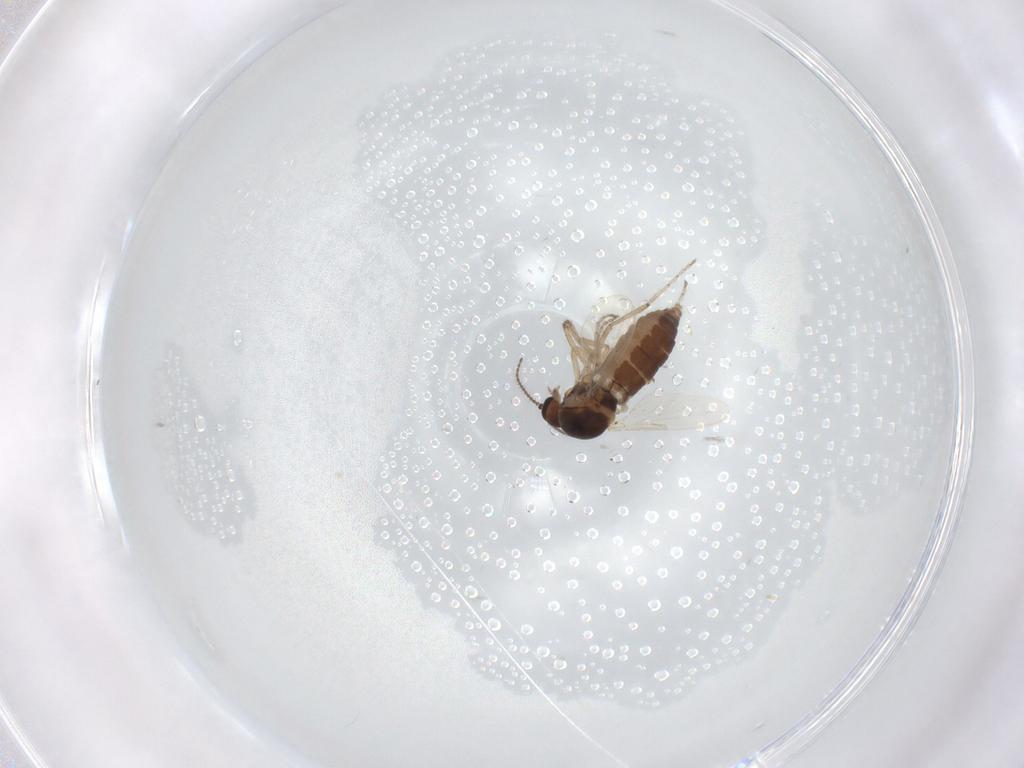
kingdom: Animalia
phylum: Arthropoda
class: Insecta
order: Diptera
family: Ceratopogonidae
